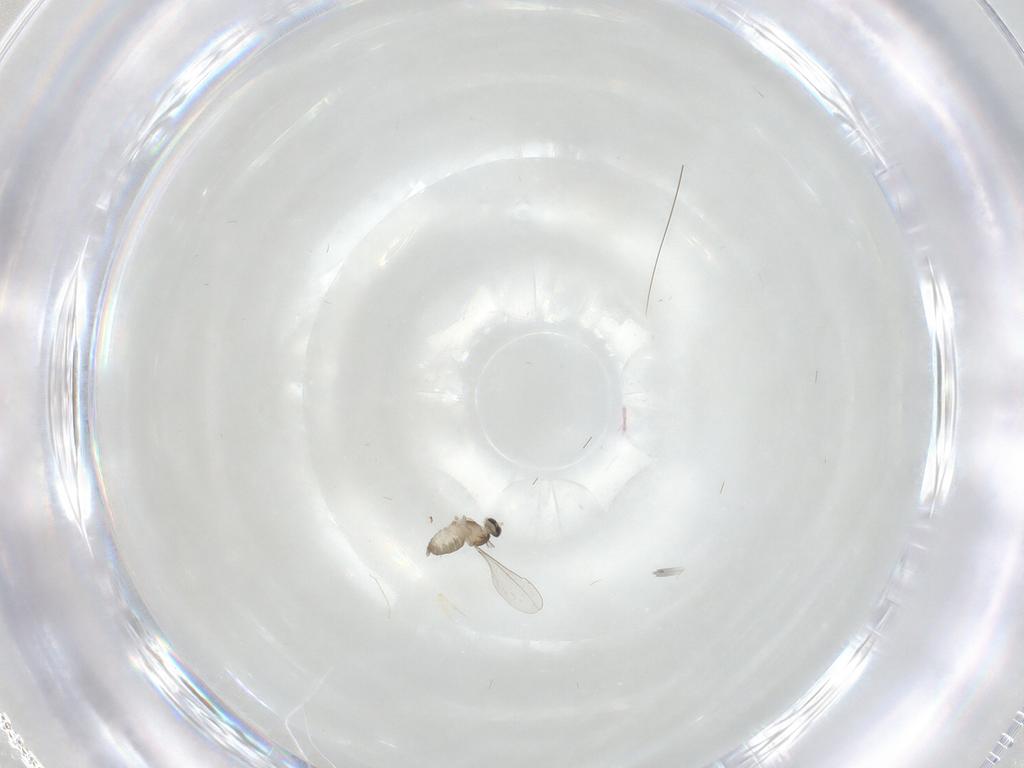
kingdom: Animalia
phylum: Arthropoda
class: Insecta
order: Diptera
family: Cecidomyiidae
